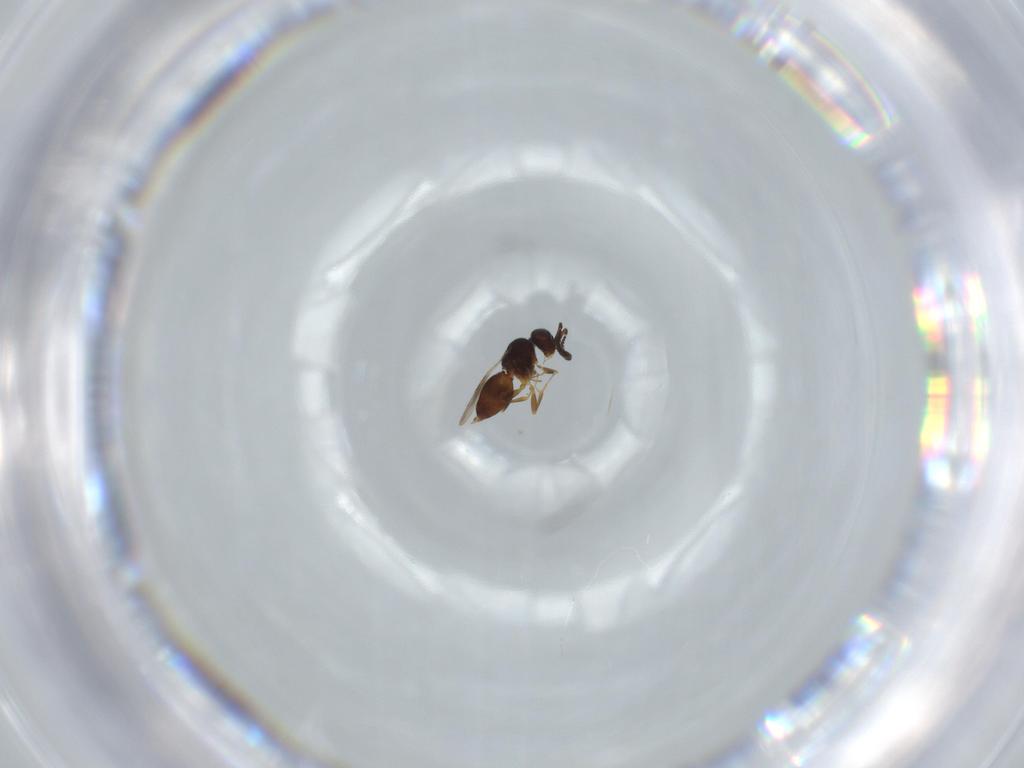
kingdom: Animalia
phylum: Arthropoda
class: Insecta
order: Hymenoptera
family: Ceraphronidae
